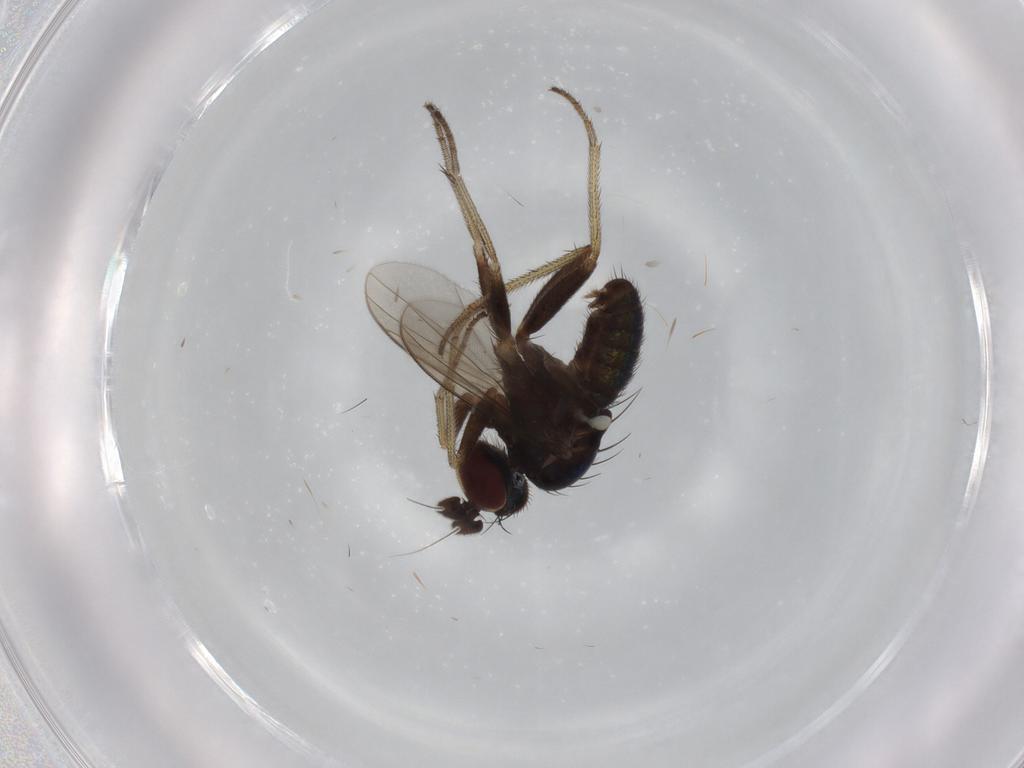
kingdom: Animalia
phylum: Arthropoda
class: Insecta
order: Diptera
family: Dolichopodidae
